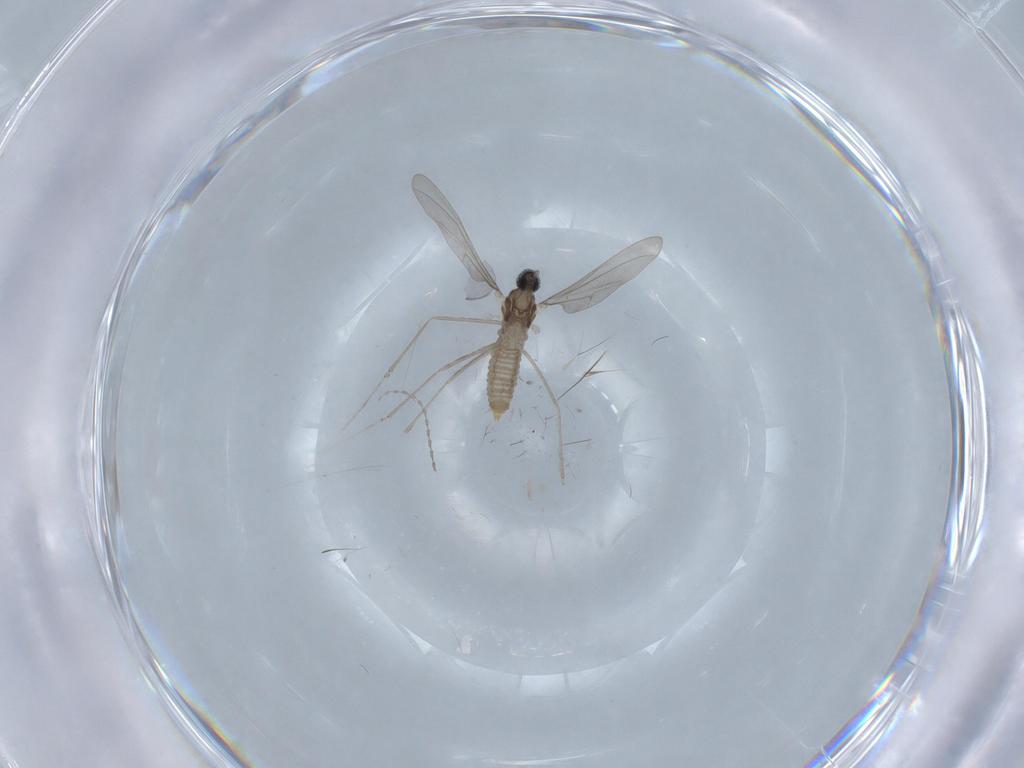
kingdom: Animalia
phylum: Arthropoda
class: Insecta
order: Diptera
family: Cecidomyiidae
